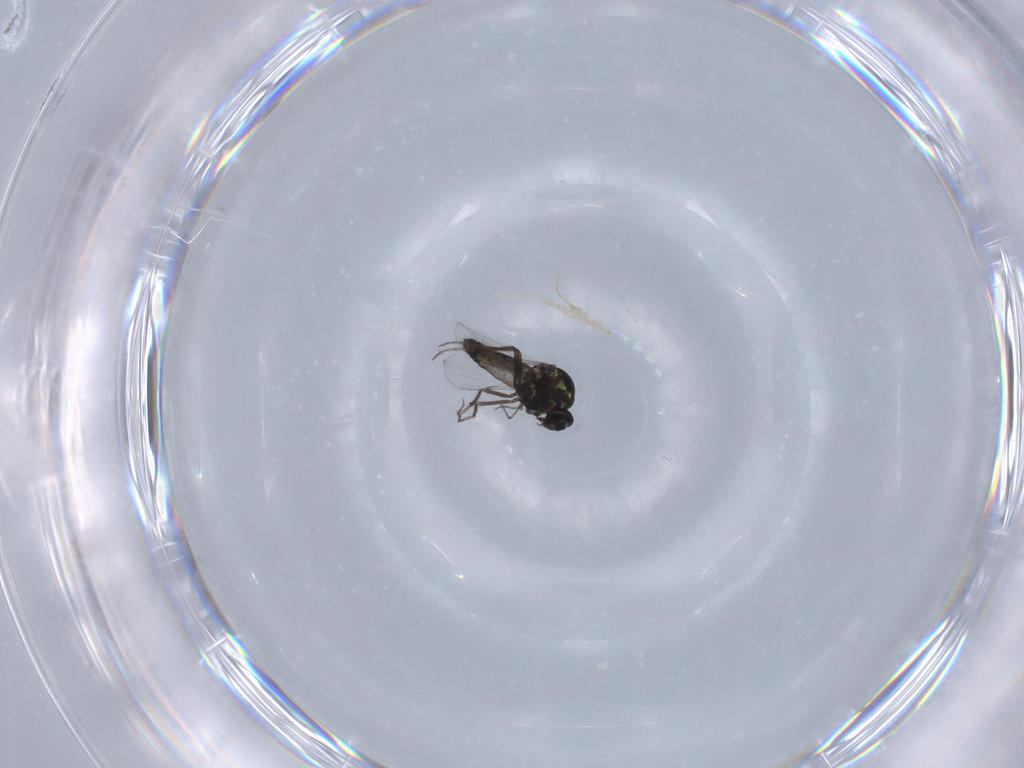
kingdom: Animalia
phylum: Arthropoda
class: Insecta
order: Diptera
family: Ceratopogonidae
